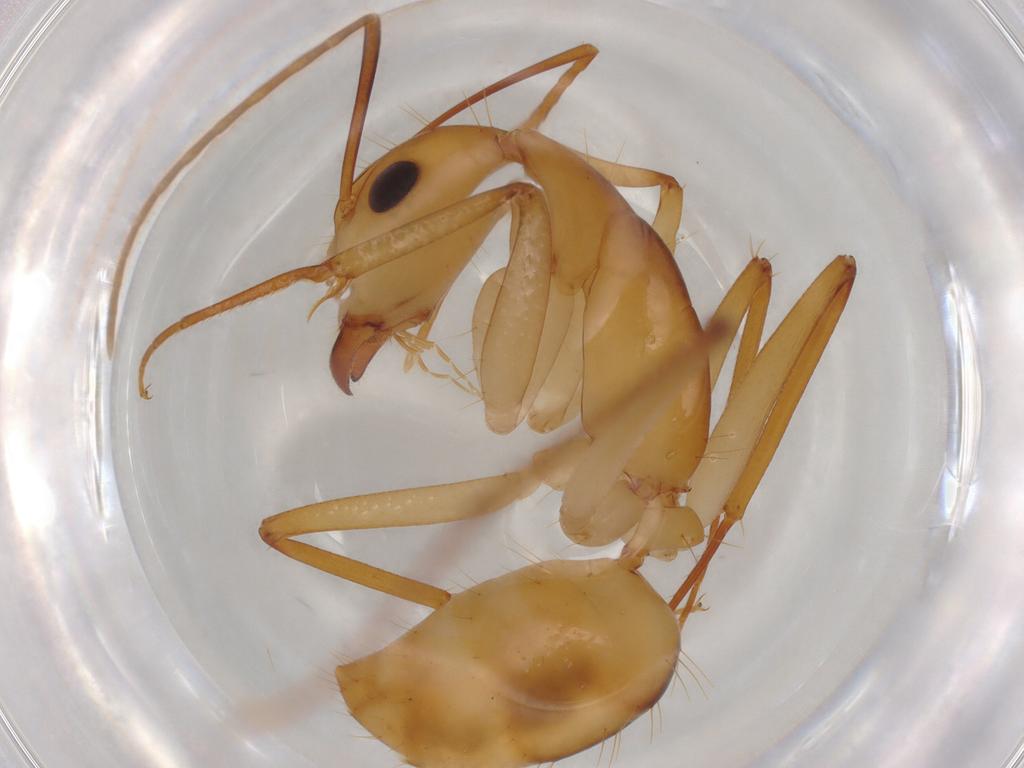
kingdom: Animalia
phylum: Arthropoda
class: Insecta
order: Hymenoptera
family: Formicidae
